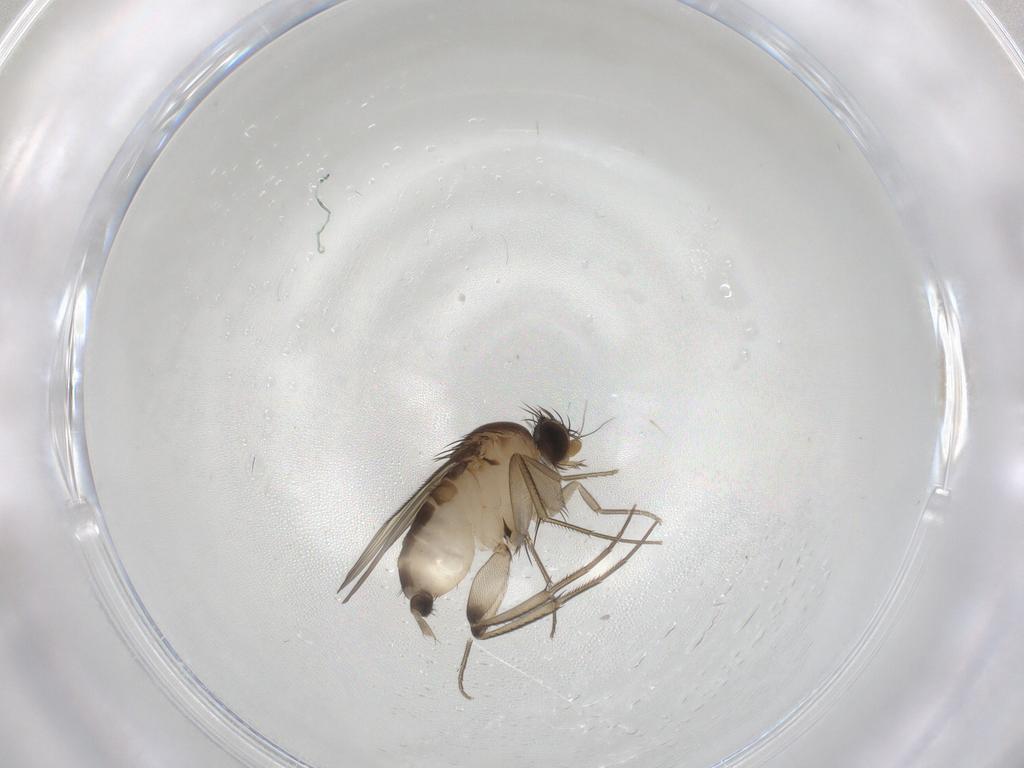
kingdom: Animalia
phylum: Arthropoda
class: Insecta
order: Diptera
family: Phoridae
